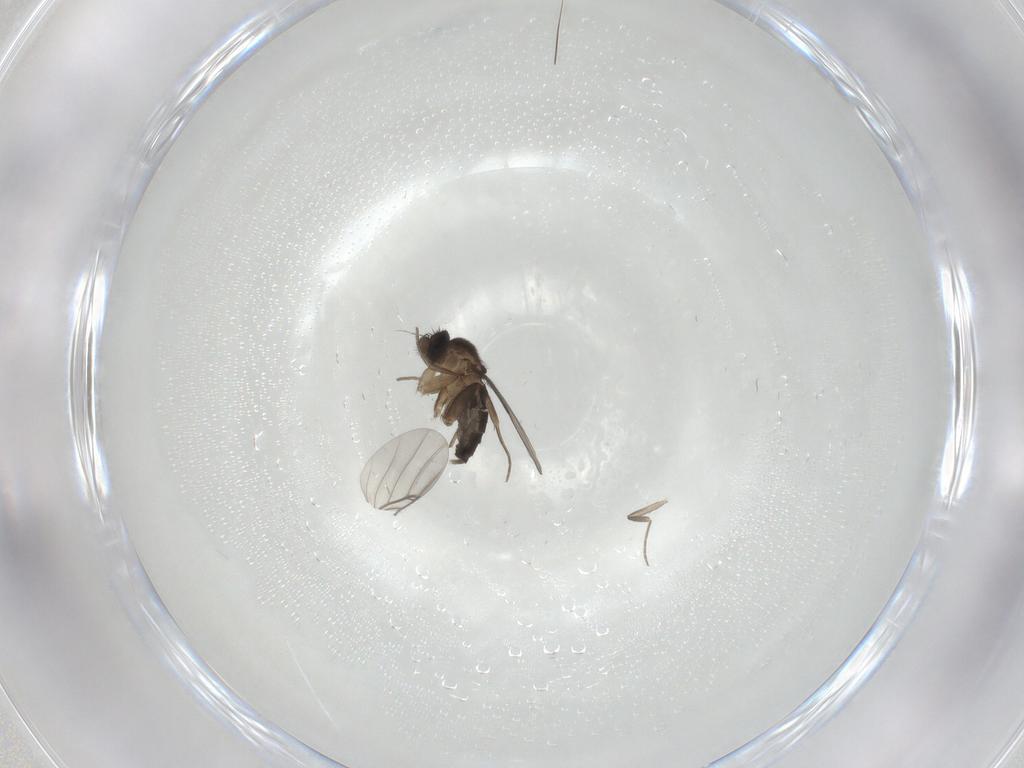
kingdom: Animalia
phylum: Arthropoda
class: Insecta
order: Diptera
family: Phoridae
